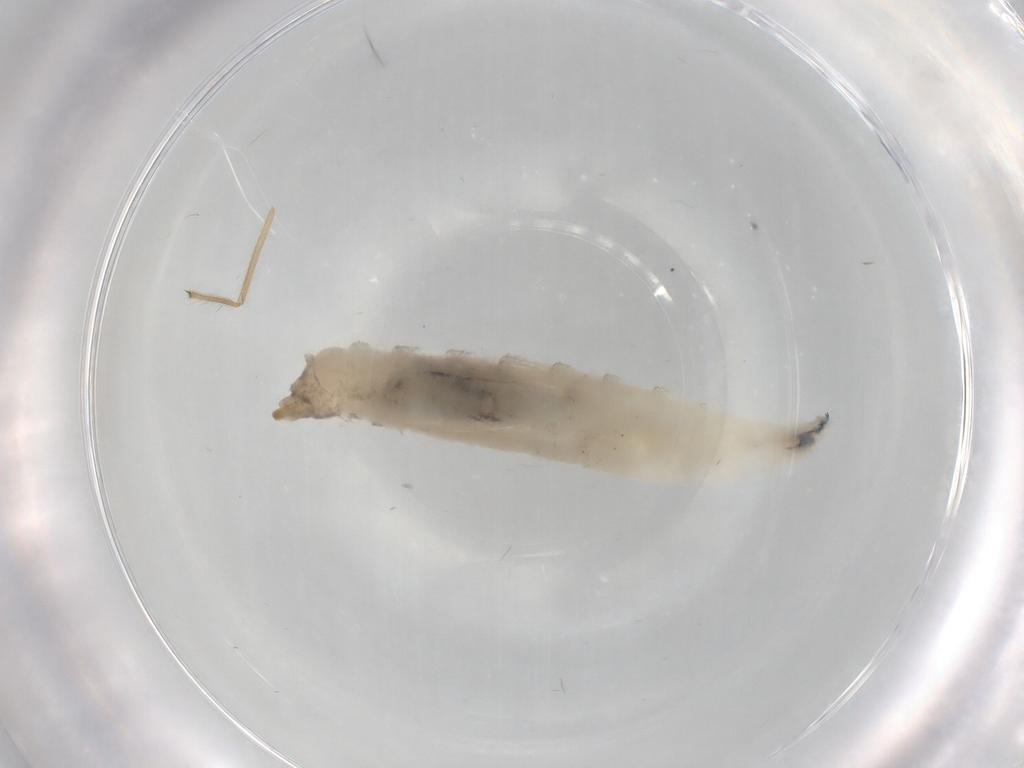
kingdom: Animalia
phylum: Arthropoda
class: Insecta
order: Diptera
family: Drosophilidae
